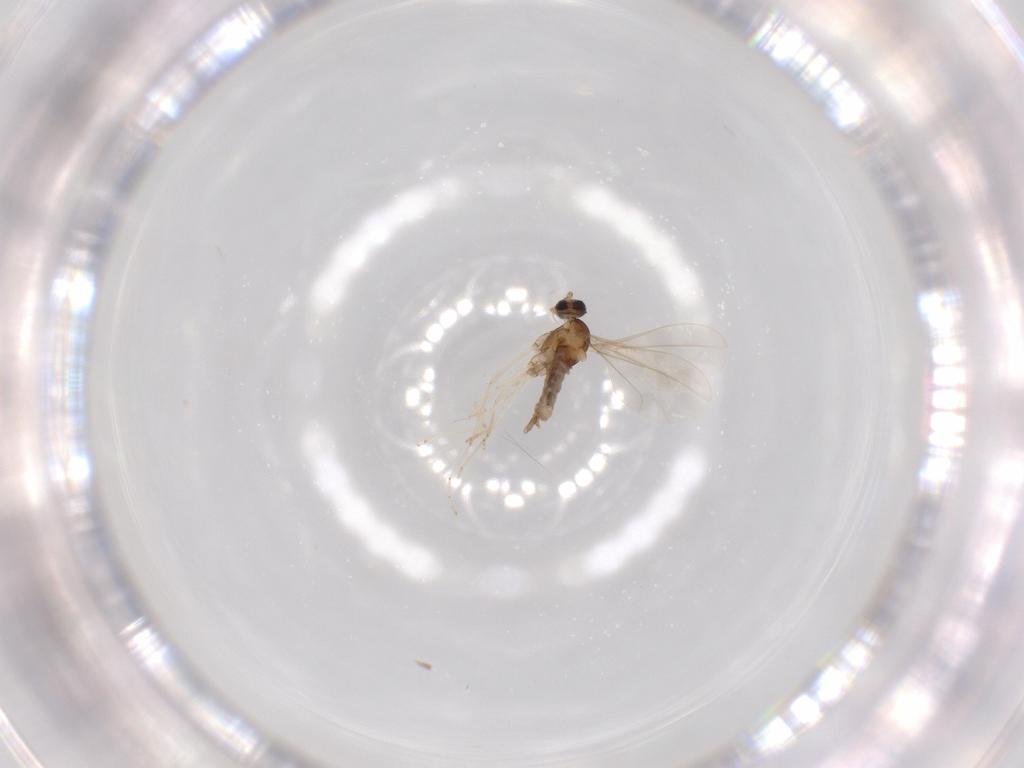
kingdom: Animalia
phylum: Arthropoda
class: Insecta
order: Diptera
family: Cecidomyiidae
